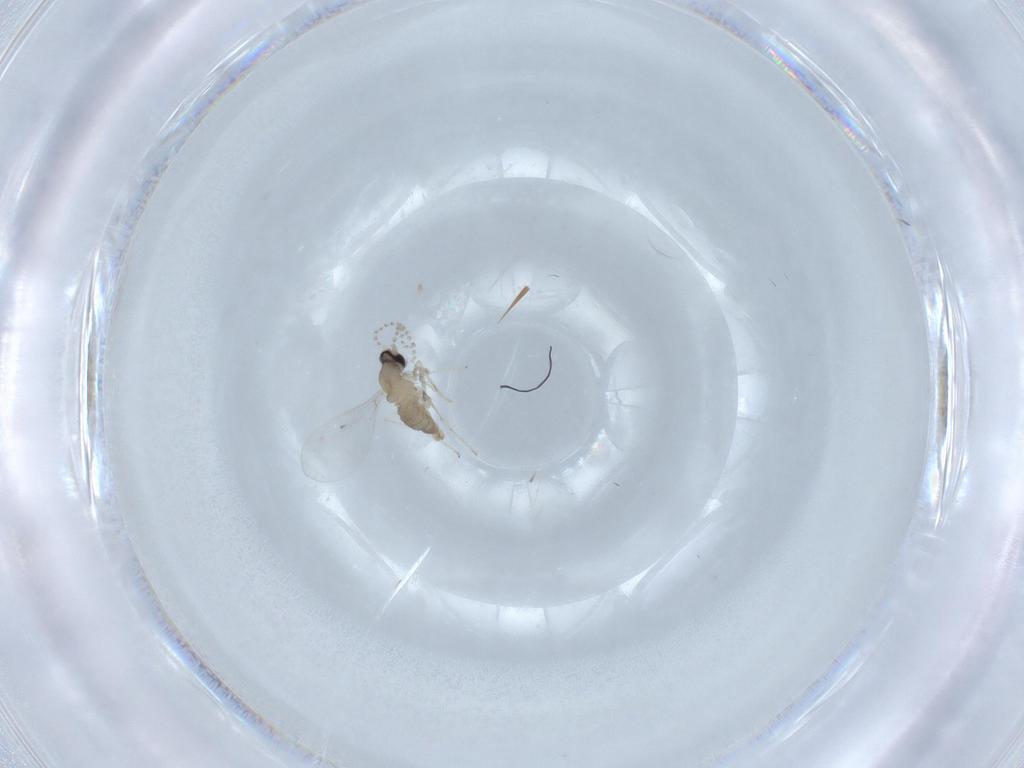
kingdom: Animalia
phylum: Arthropoda
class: Insecta
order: Diptera
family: Cecidomyiidae
